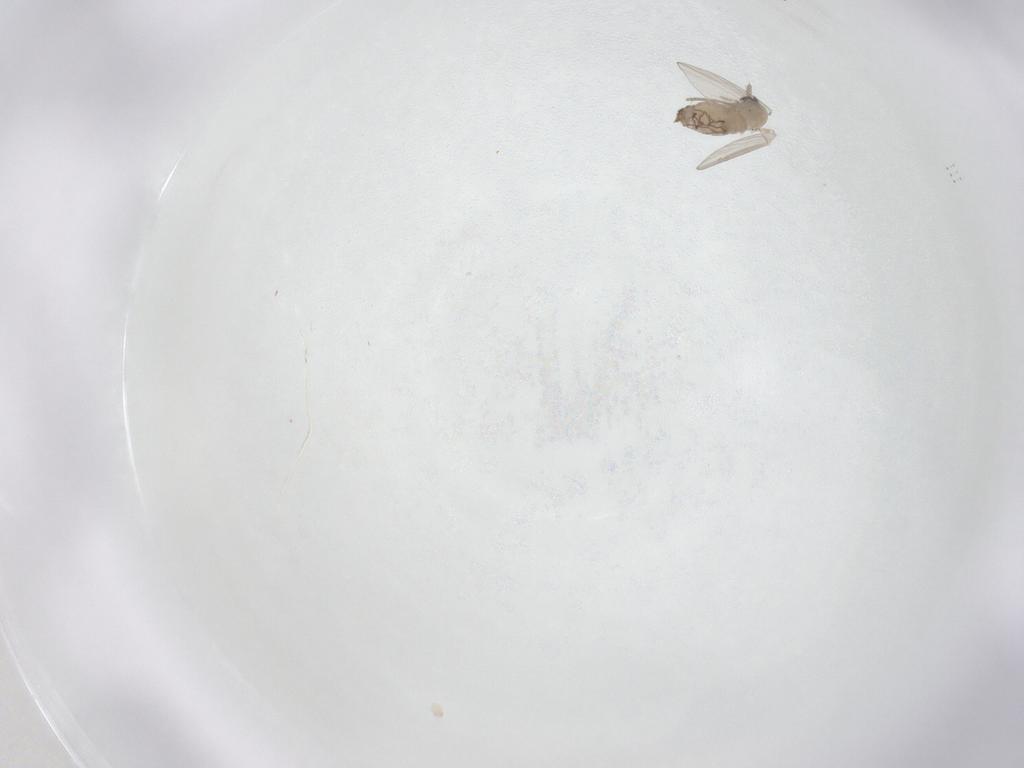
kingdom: Animalia
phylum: Arthropoda
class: Insecta
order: Diptera
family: Psychodidae
